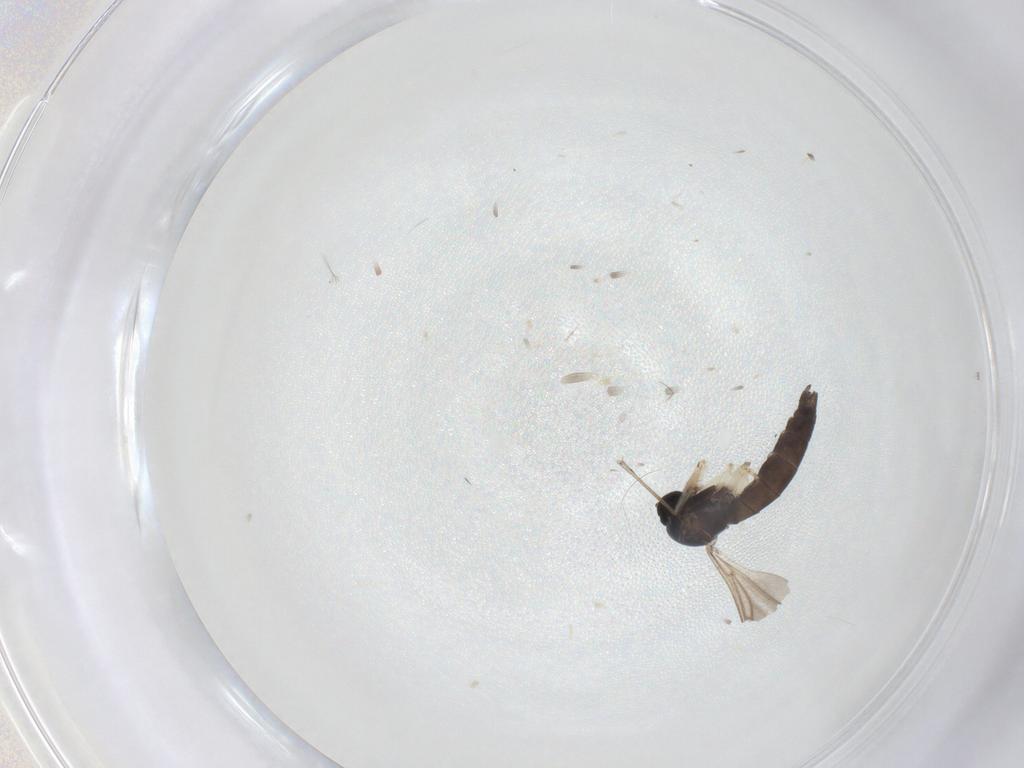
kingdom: Animalia
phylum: Arthropoda
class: Insecta
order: Diptera
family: Sciaridae
